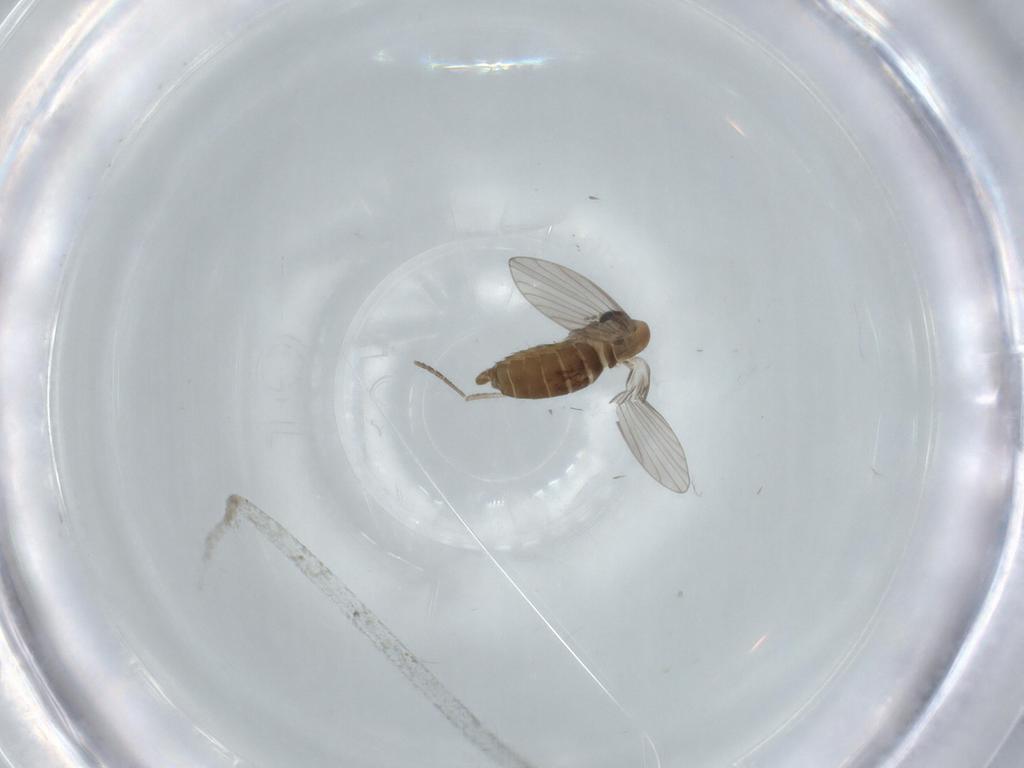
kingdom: Animalia
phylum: Arthropoda
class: Insecta
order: Diptera
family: Psychodidae
